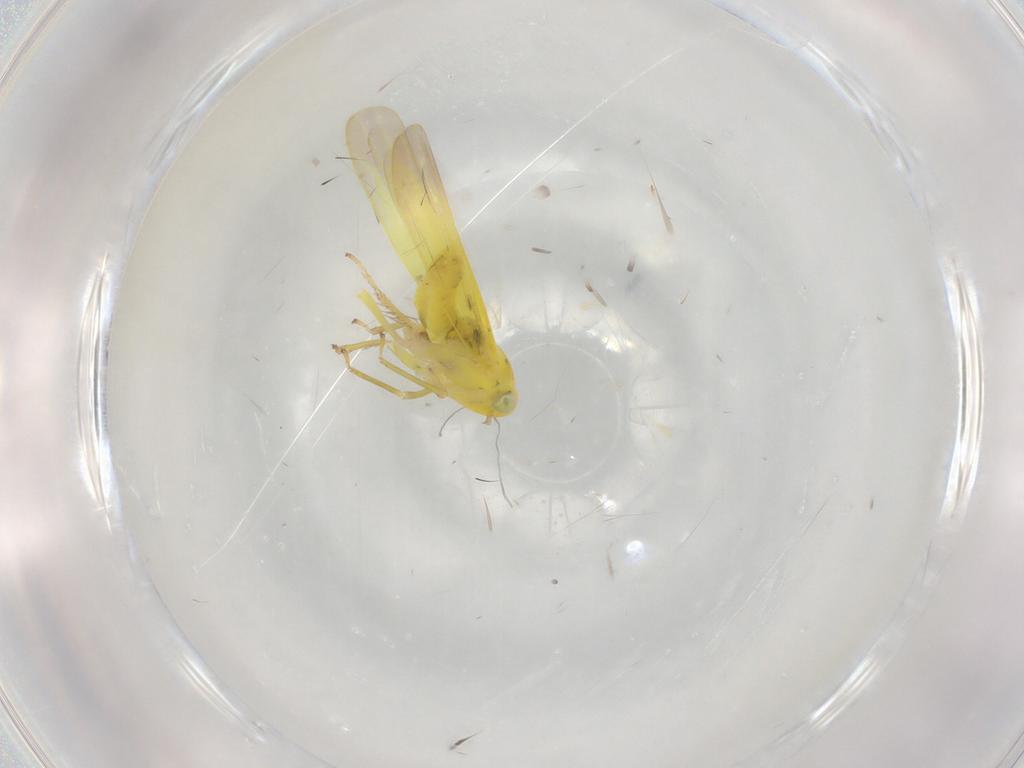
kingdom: Animalia
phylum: Arthropoda
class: Insecta
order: Hemiptera
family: Cicadellidae
